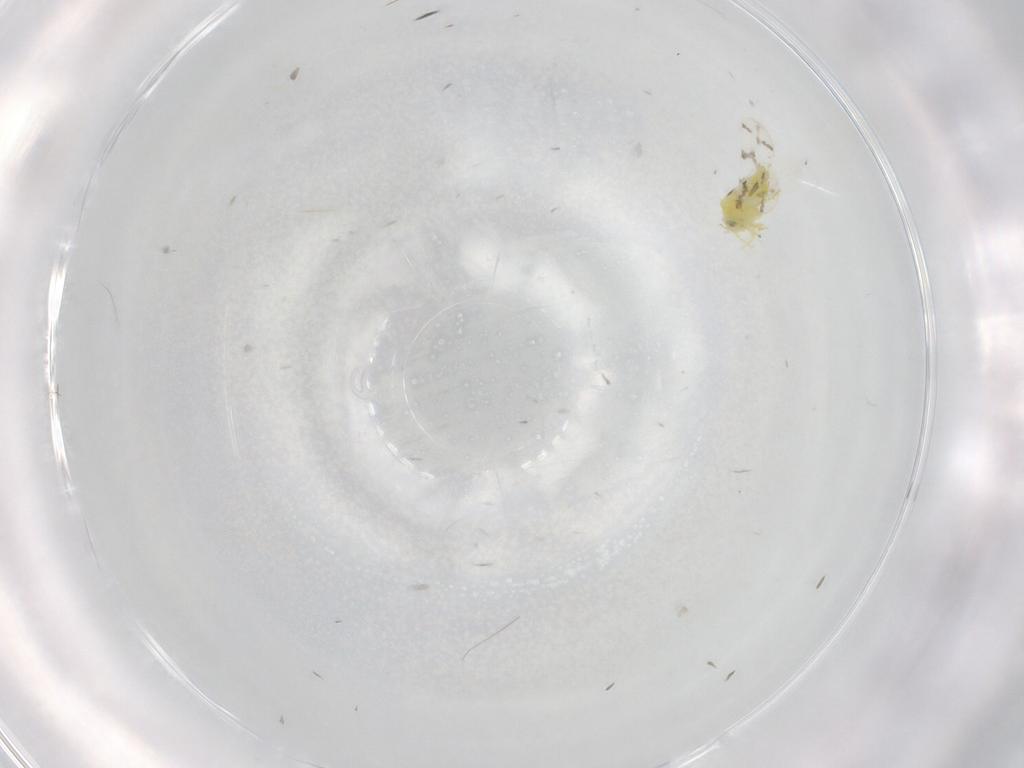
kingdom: Animalia
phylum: Arthropoda
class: Insecta
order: Hemiptera
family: Aleyrodidae
